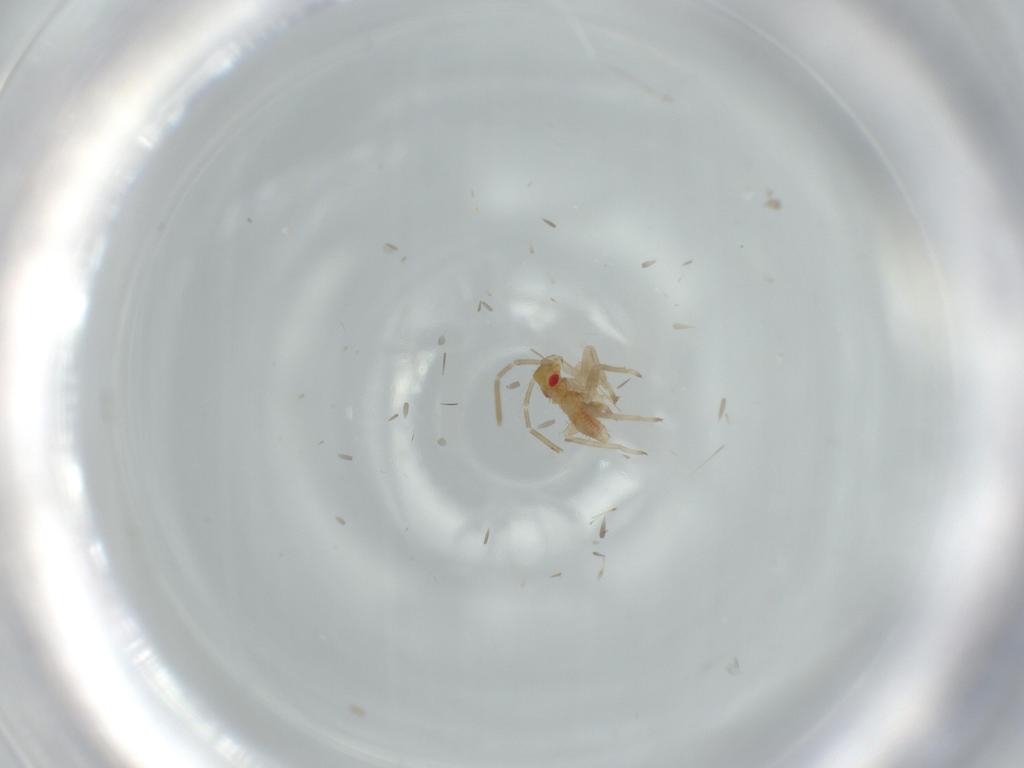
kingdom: Animalia
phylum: Arthropoda
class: Insecta
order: Hemiptera
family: Miridae
